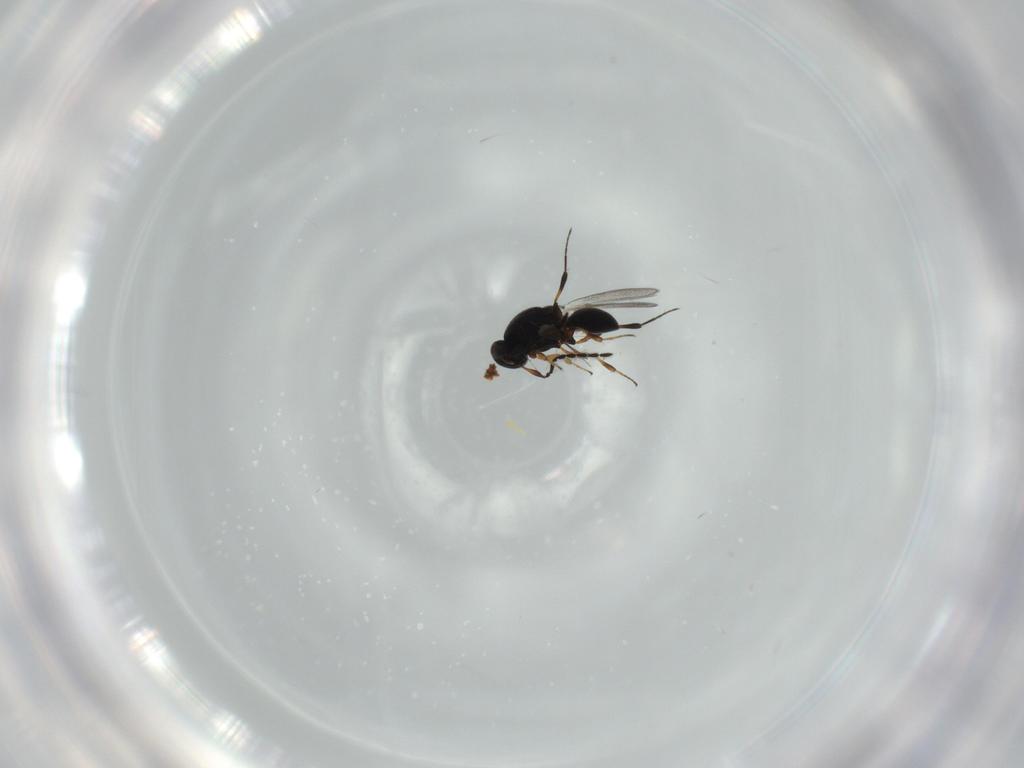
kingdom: Animalia
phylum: Arthropoda
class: Insecta
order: Hymenoptera
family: Platygastridae
